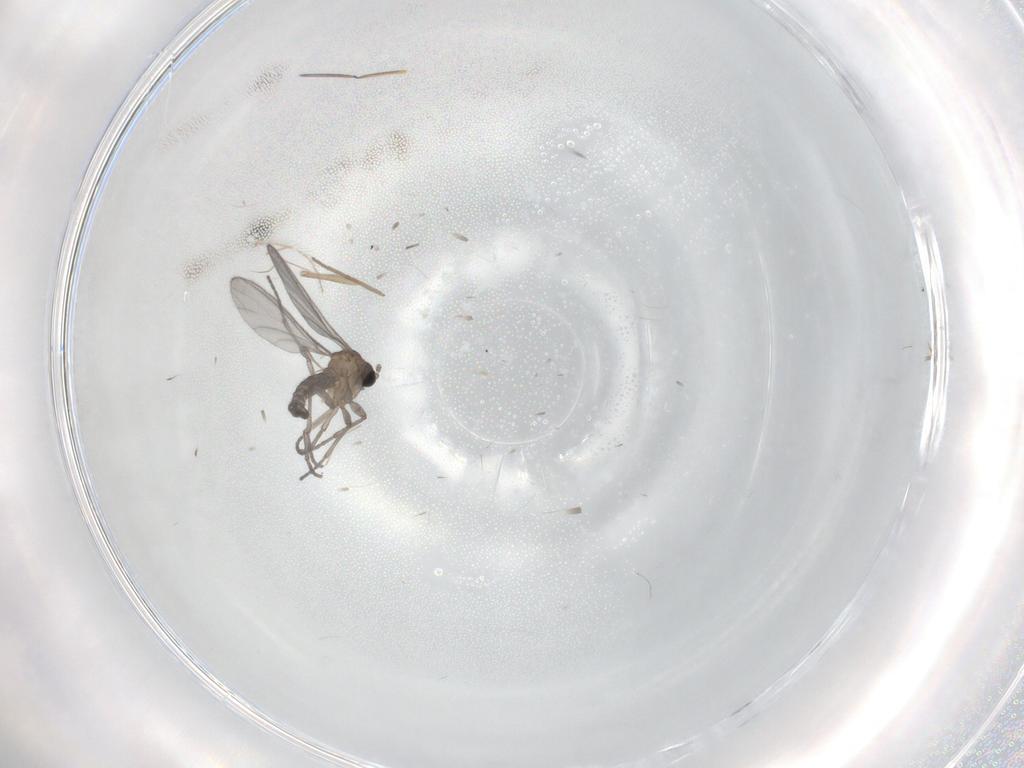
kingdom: Animalia
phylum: Arthropoda
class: Insecta
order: Diptera
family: Sciaridae
